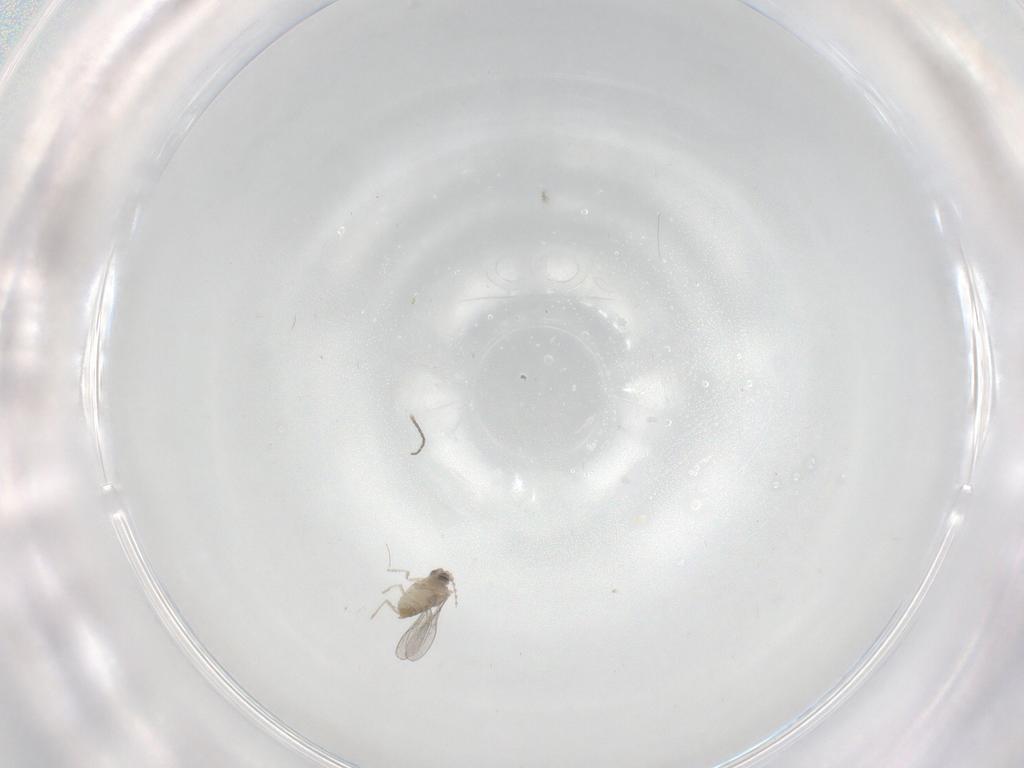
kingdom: Animalia
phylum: Arthropoda
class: Insecta
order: Diptera
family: Cecidomyiidae
